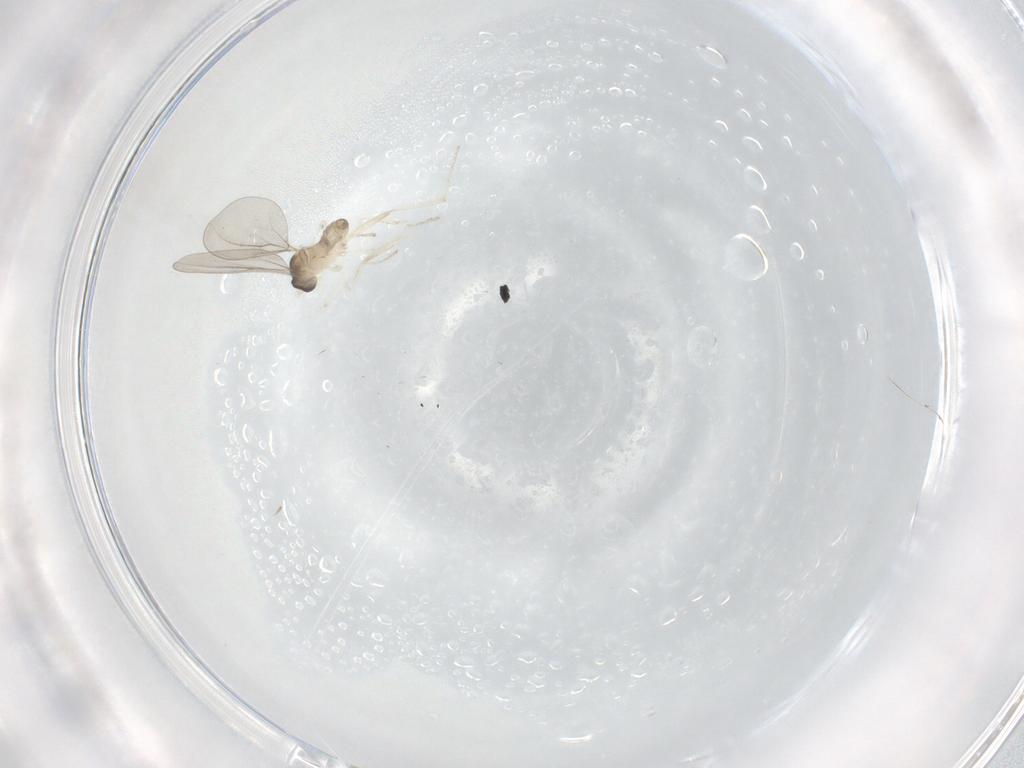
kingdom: Animalia
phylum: Arthropoda
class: Insecta
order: Diptera
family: Cecidomyiidae
